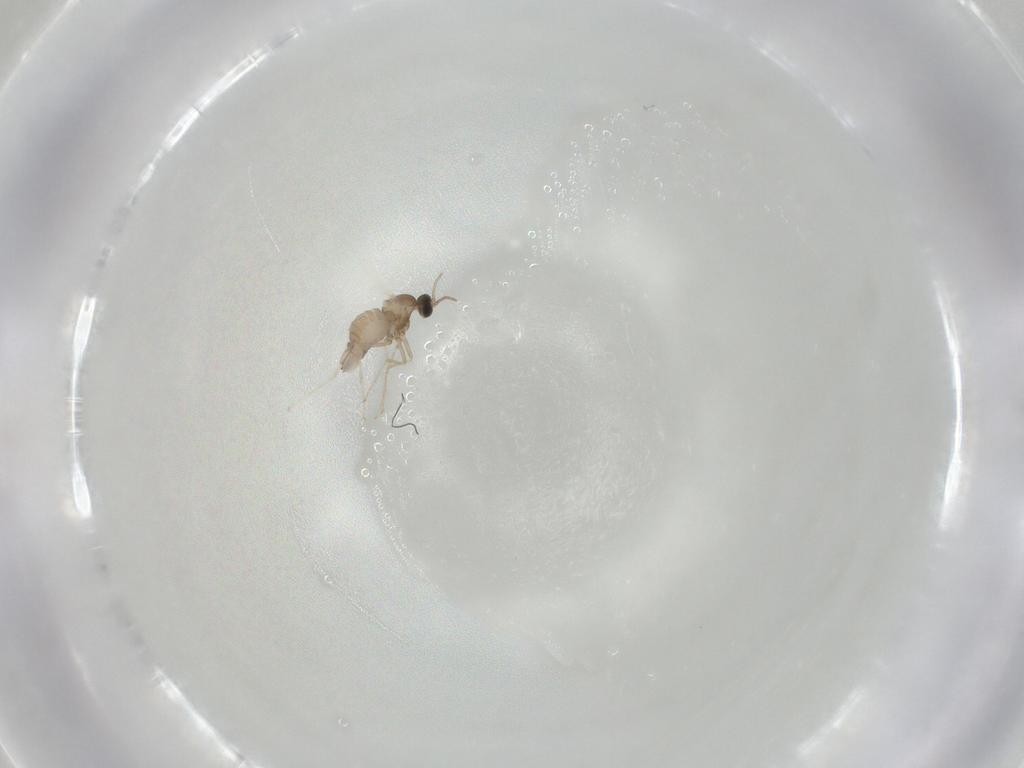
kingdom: Animalia
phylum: Arthropoda
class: Insecta
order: Diptera
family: Cecidomyiidae
